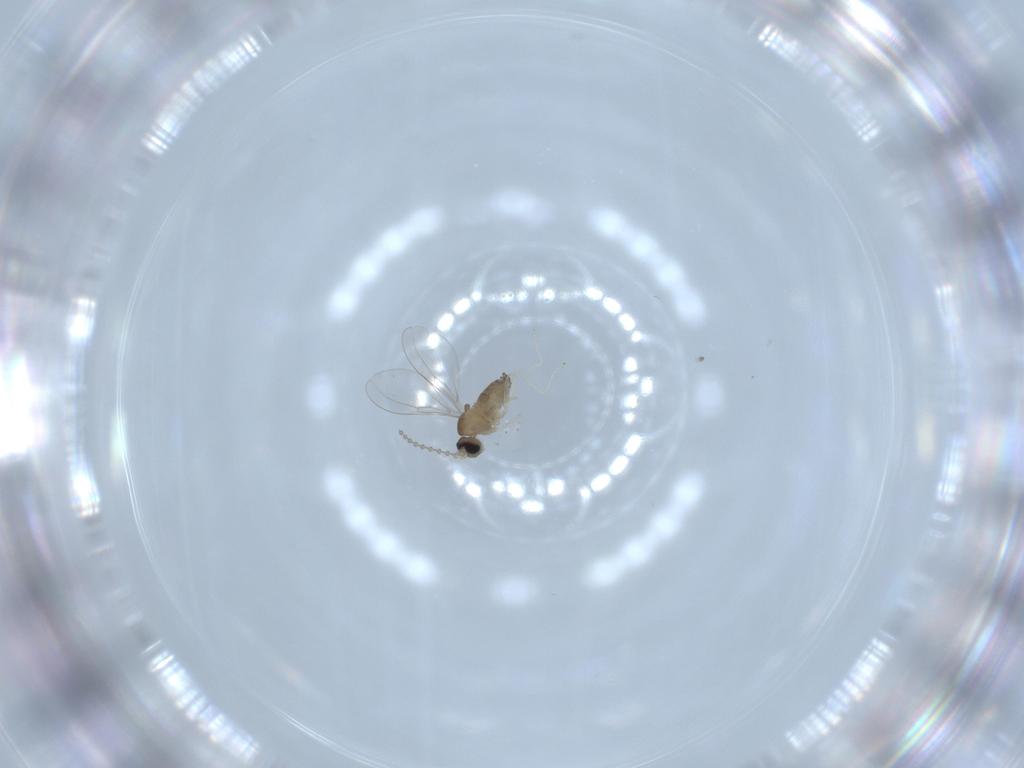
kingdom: Animalia
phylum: Arthropoda
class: Insecta
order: Diptera
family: Cecidomyiidae
